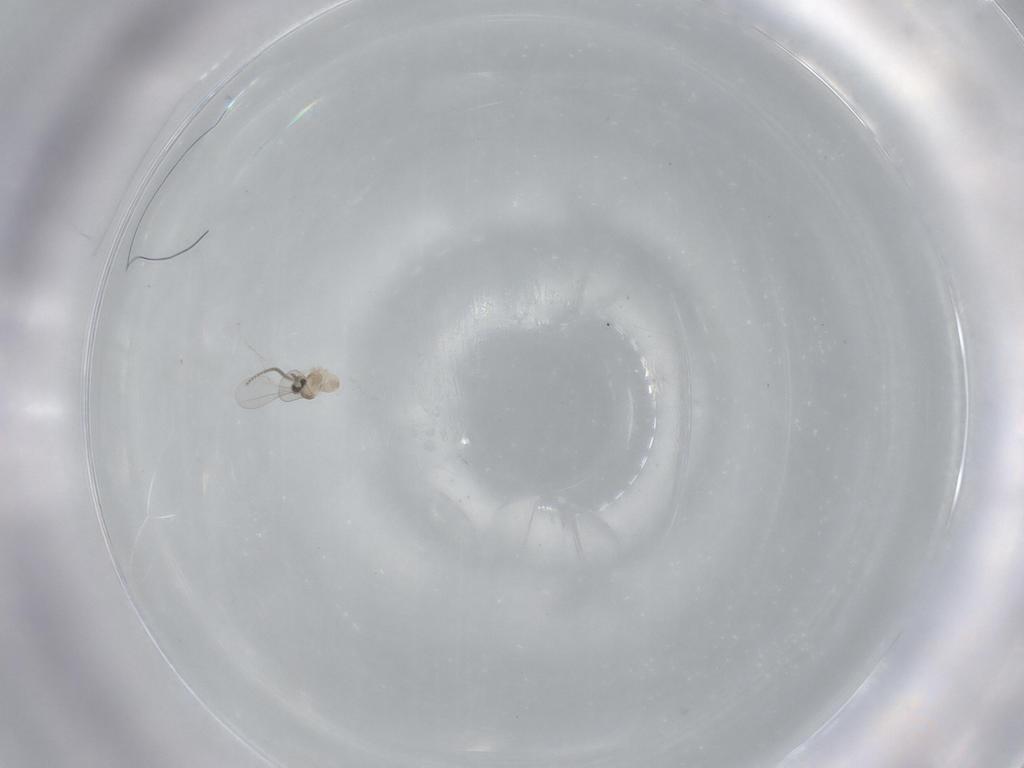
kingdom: Animalia
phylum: Arthropoda
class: Insecta
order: Diptera
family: Cecidomyiidae
